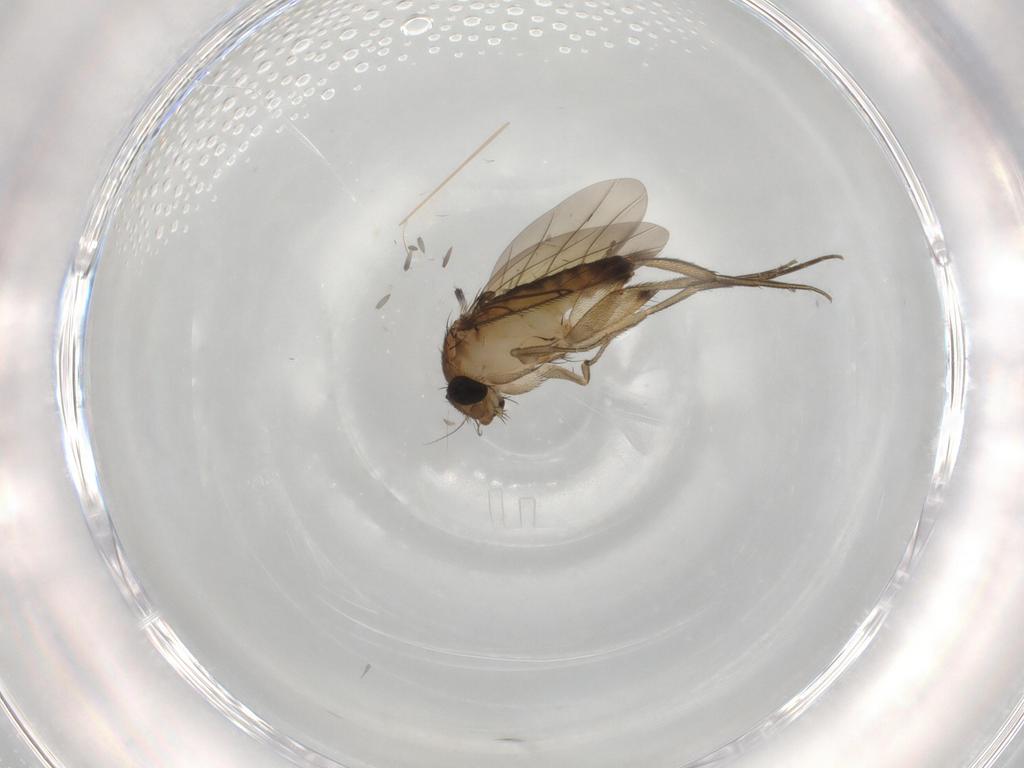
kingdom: Animalia
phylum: Arthropoda
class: Insecta
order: Diptera
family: Phoridae
